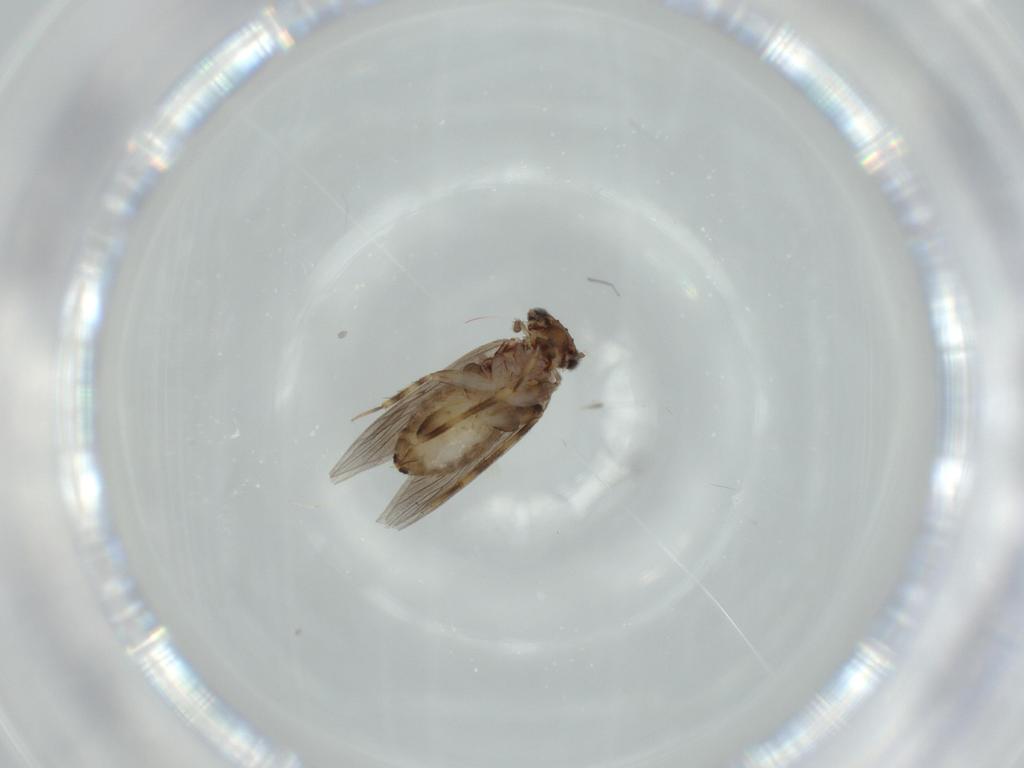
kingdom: Animalia
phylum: Arthropoda
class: Insecta
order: Psocodea
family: Lepidopsocidae
